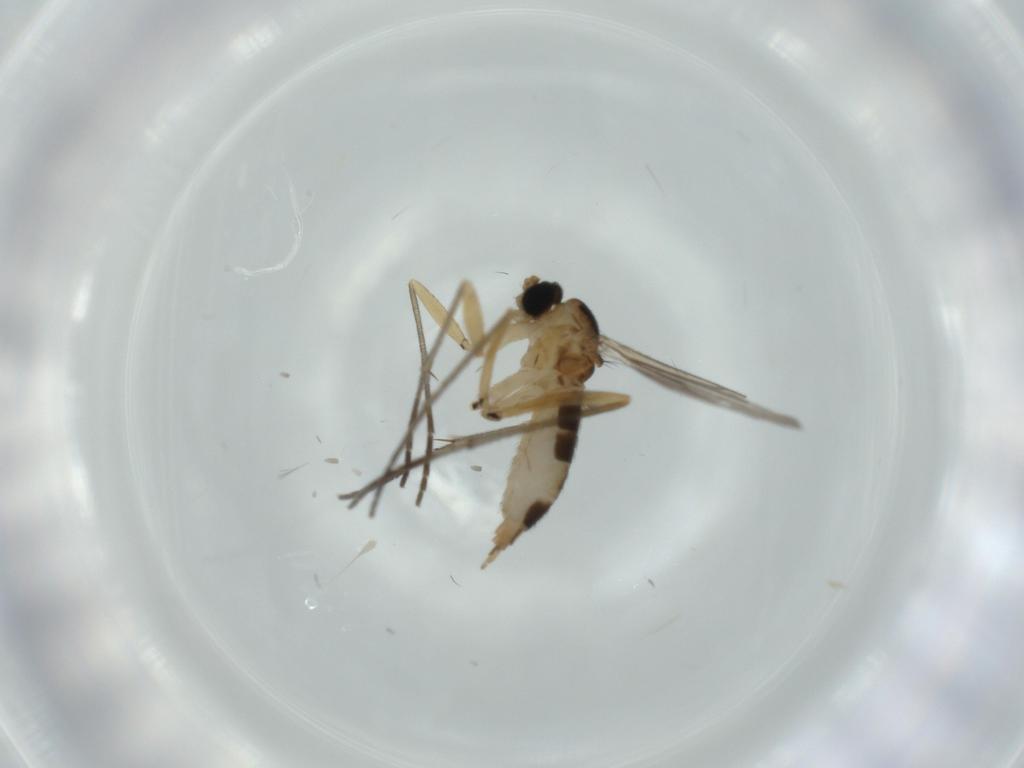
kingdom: Animalia
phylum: Arthropoda
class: Insecta
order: Diptera
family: Sciaridae
